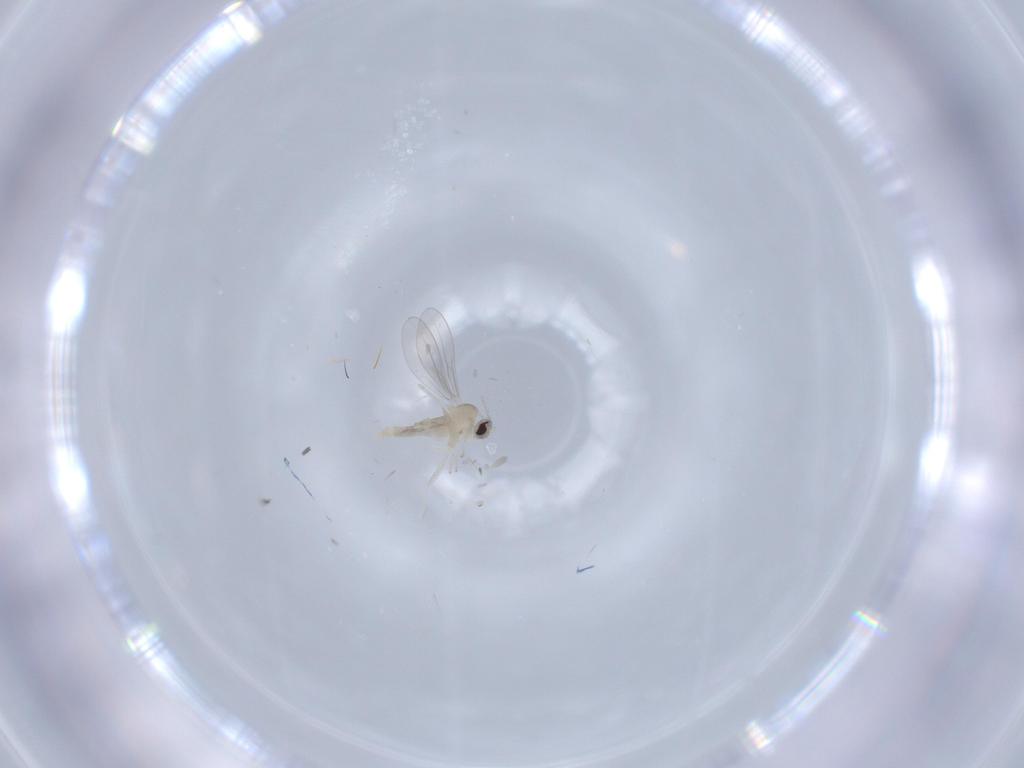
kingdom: Animalia
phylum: Arthropoda
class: Insecta
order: Diptera
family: Cecidomyiidae
